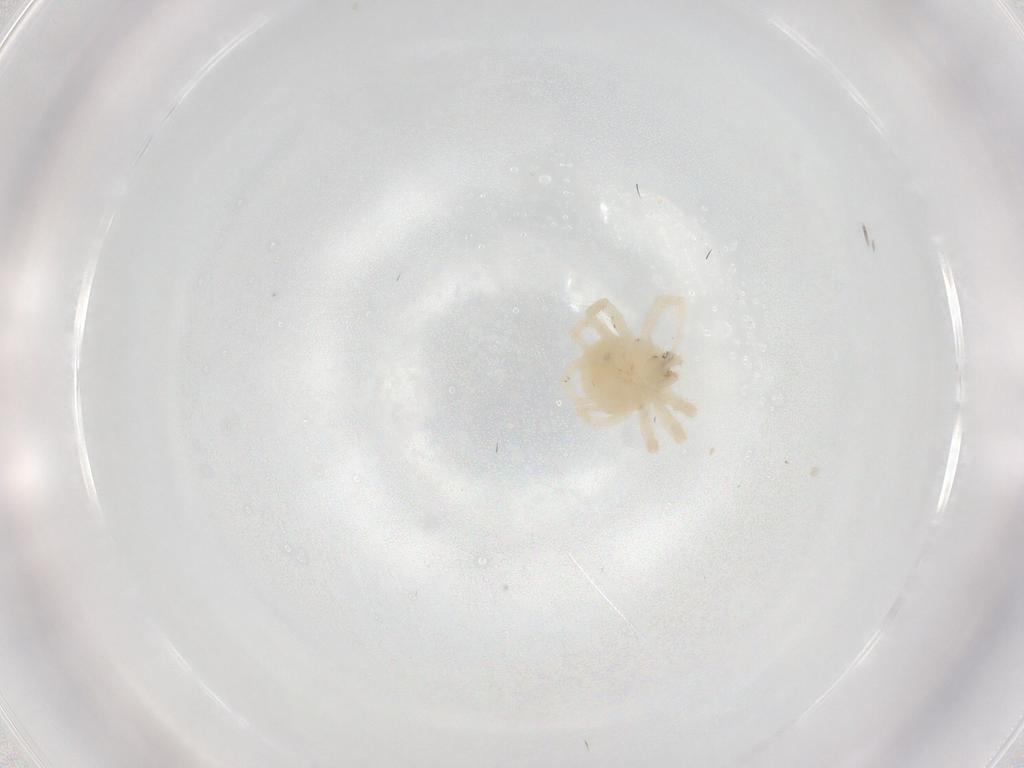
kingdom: Animalia
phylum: Arthropoda
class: Arachnida
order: Trombidiformes
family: Anystidae
